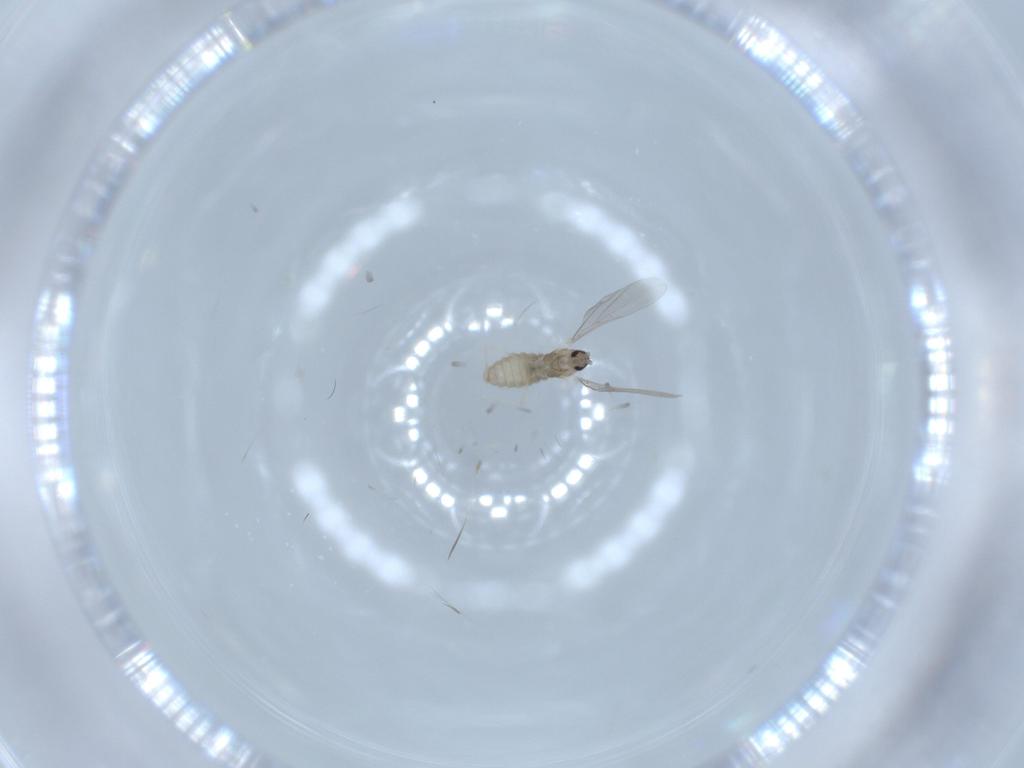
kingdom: Animalia
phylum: Arthropoda
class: Insecta
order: Diptera
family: Cecidomyiidae
